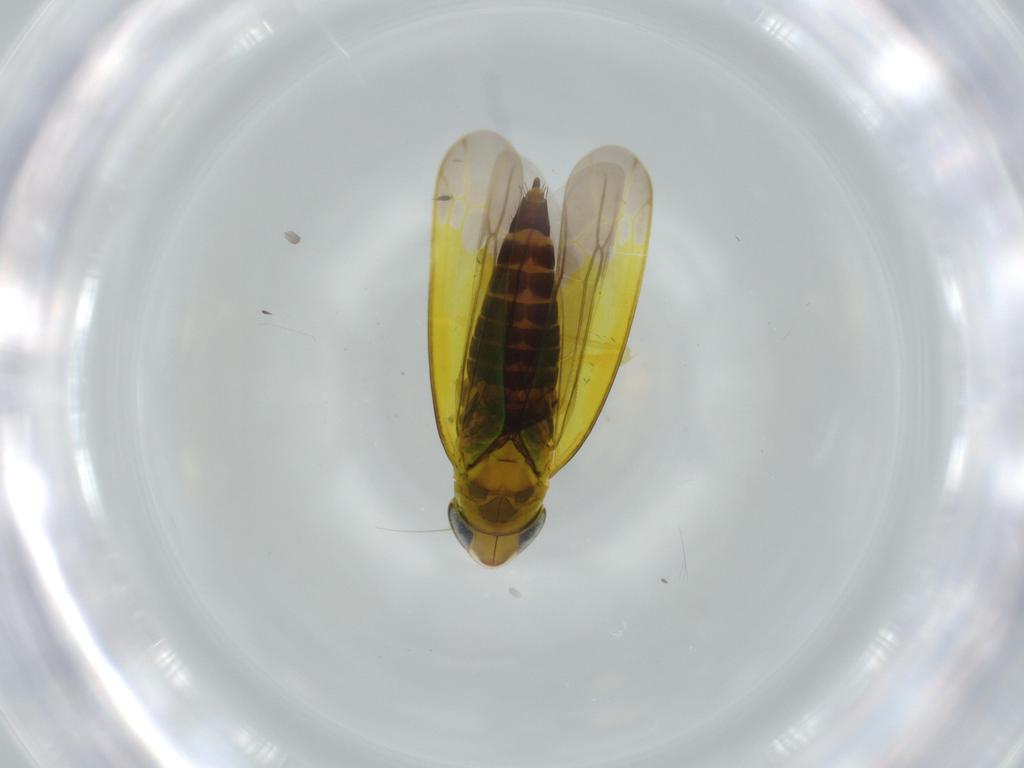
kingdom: Animalia
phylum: Arthropoda
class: Insecta
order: Hemiptera
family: Cicadellidae
